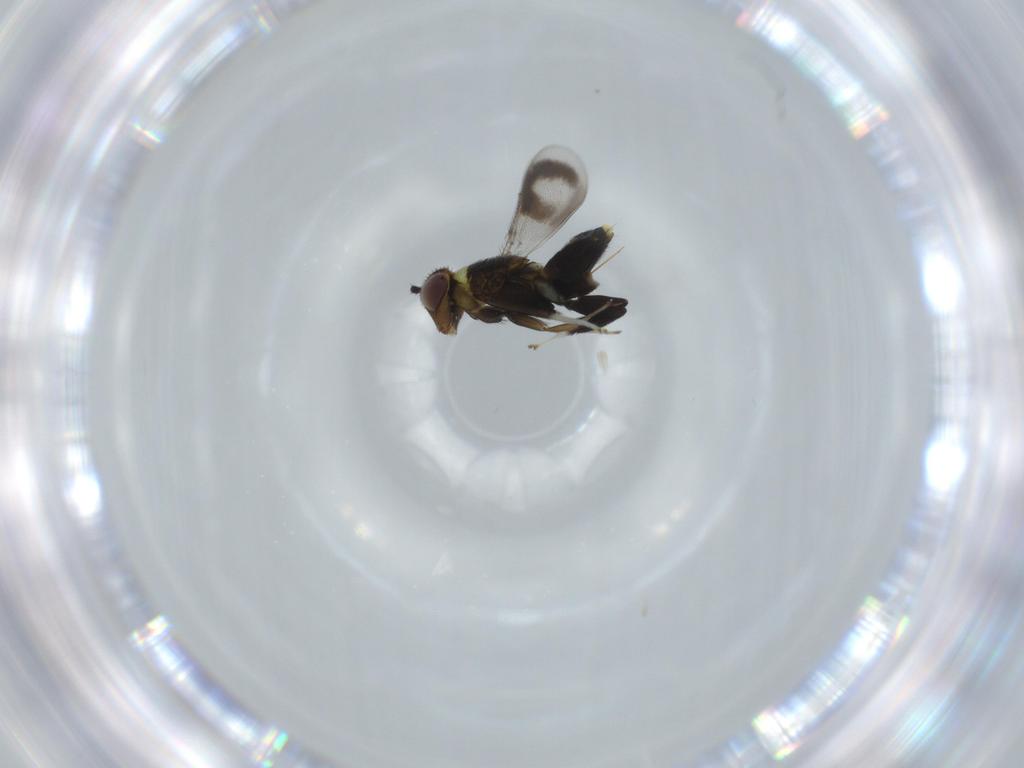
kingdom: Animalia
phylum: Arthropoda
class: Insecta
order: Hymenoptera
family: Aphelinidae
